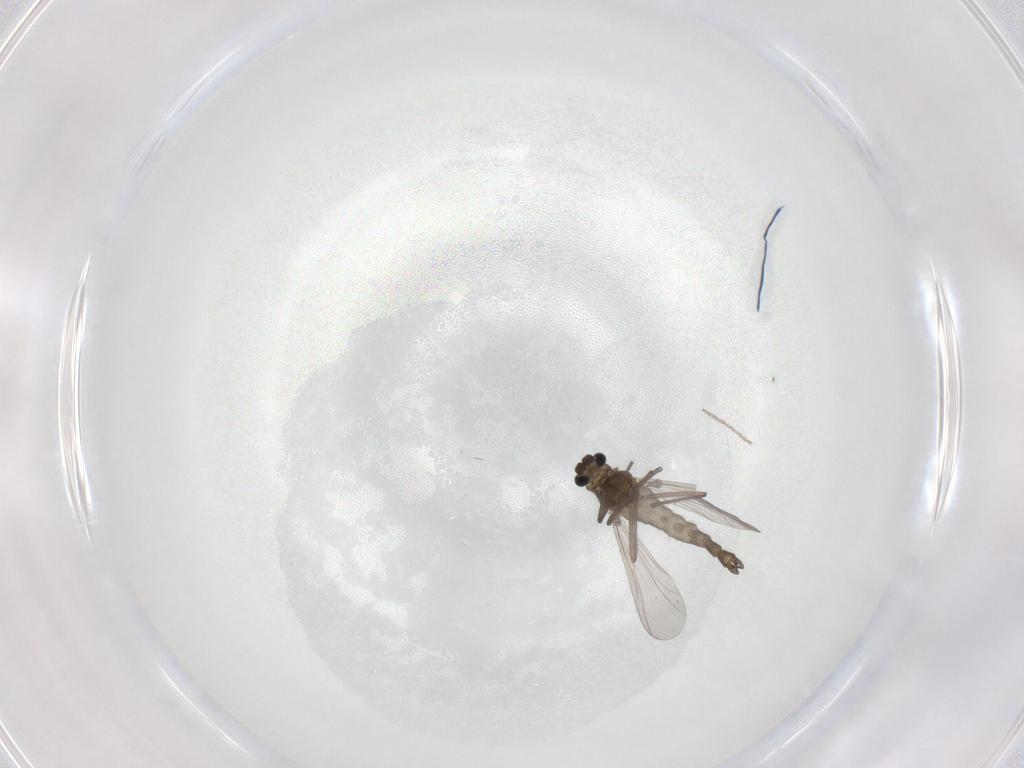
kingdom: Animalia
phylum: Arthropoda
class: Insecta
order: Diptera
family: Chironomidae
